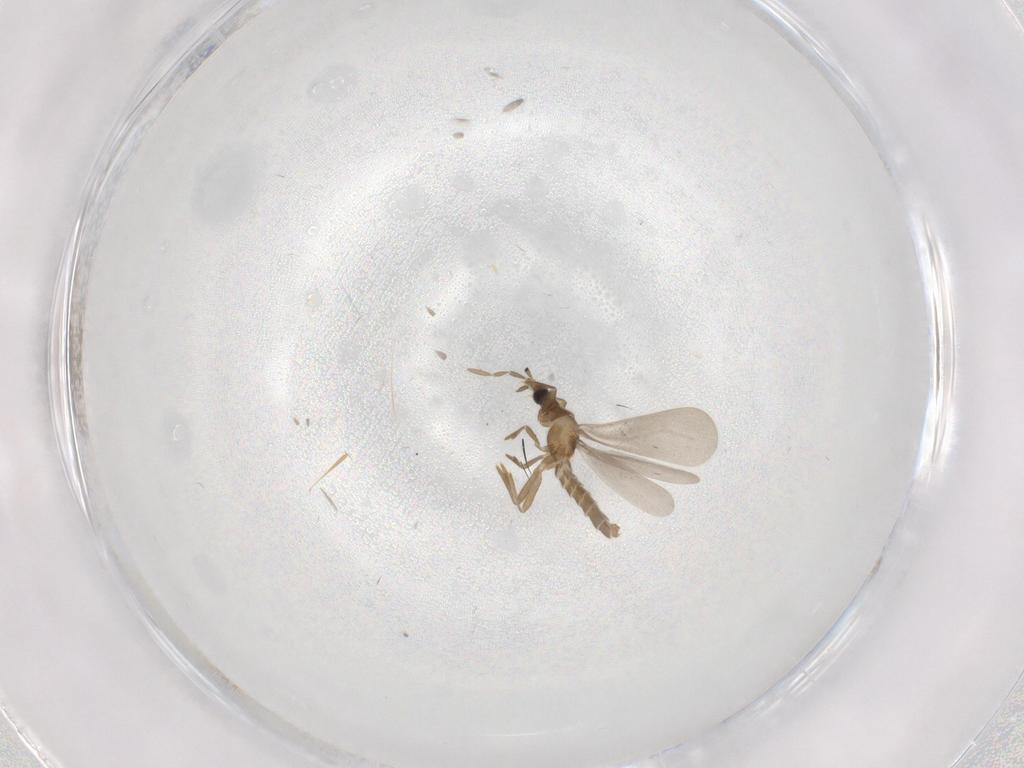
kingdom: Animalia
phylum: Arthropoda
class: Insecta
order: Hemiptera
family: Enicocephalidae
